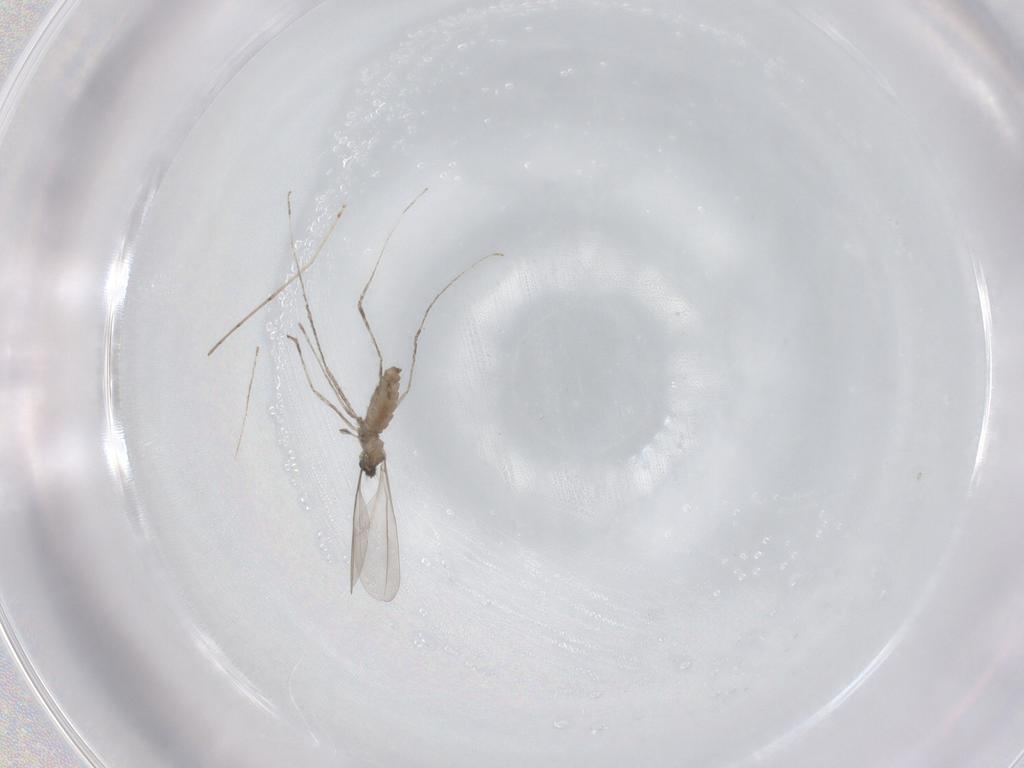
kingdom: Animalia
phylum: Arthropoda
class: Insecta
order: Diptera
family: Cecidomyiidae
